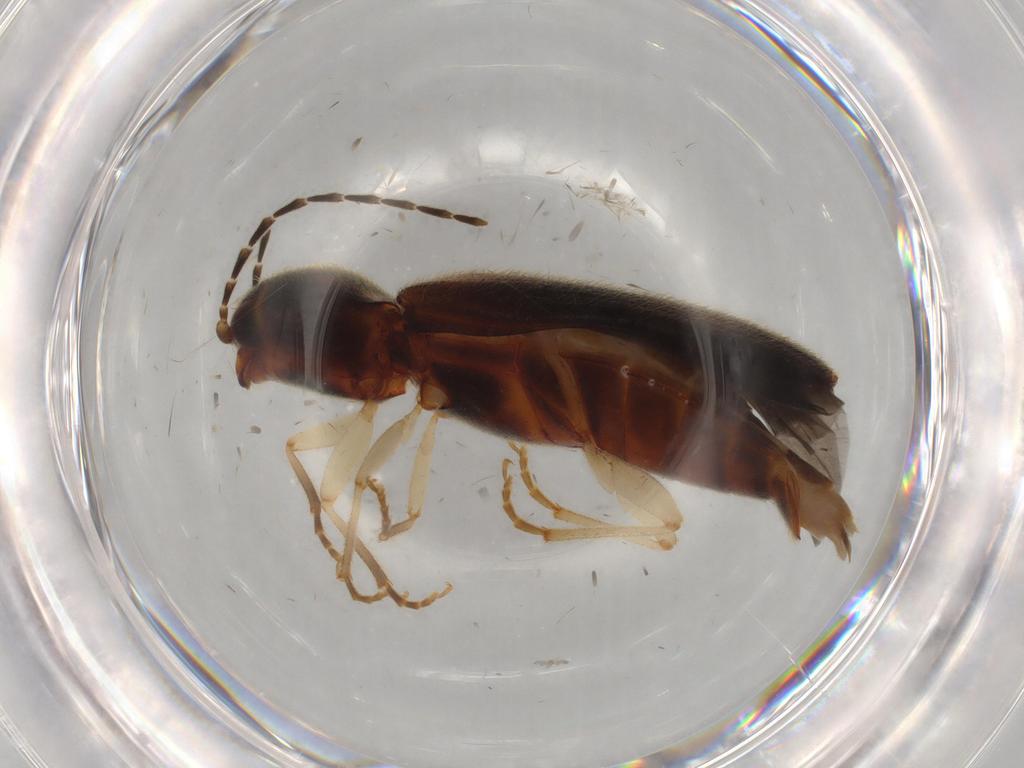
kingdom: Animalia
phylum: Arthropoda
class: Insecta
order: Coleoptera
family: Elateridae
